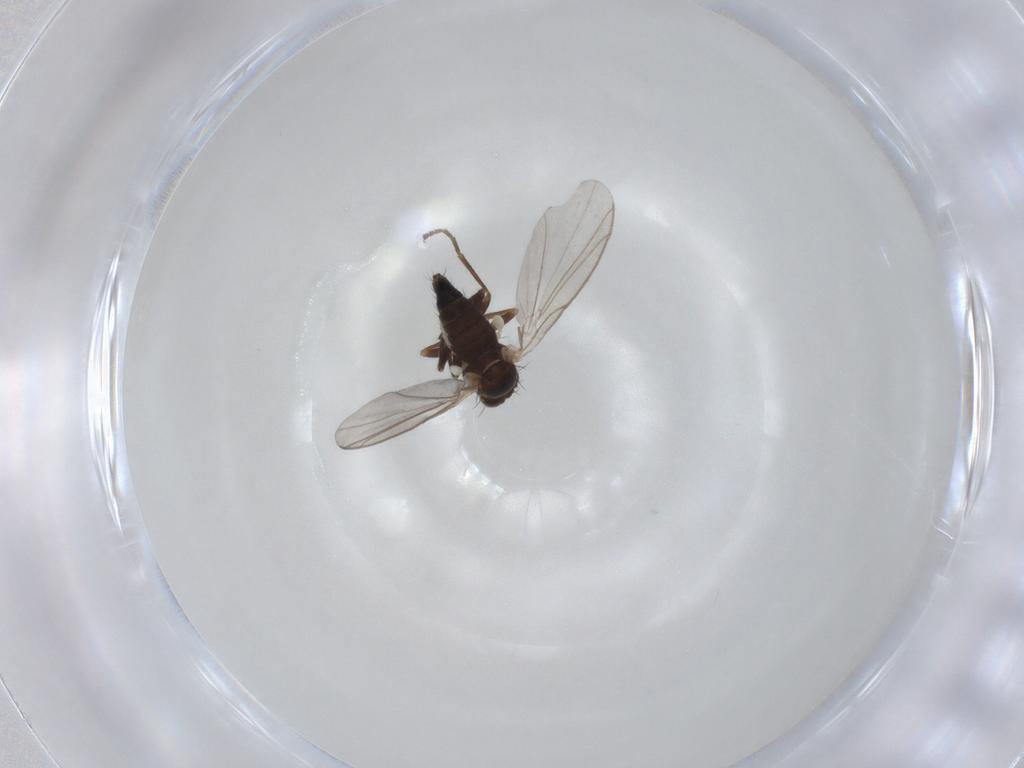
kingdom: Animalia
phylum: Arthropoda
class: Insecta
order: Diptera
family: Agromyzidae
